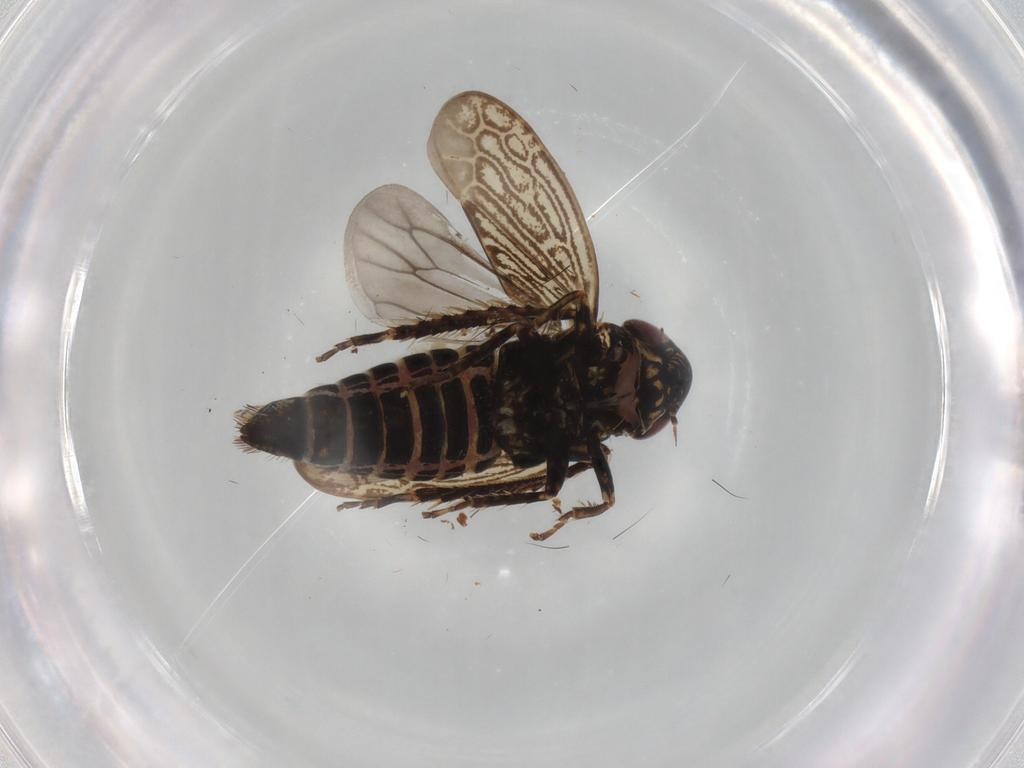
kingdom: Animalia
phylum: Arthropoda
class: Insecta
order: Hemiptera
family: Cicadellidae
